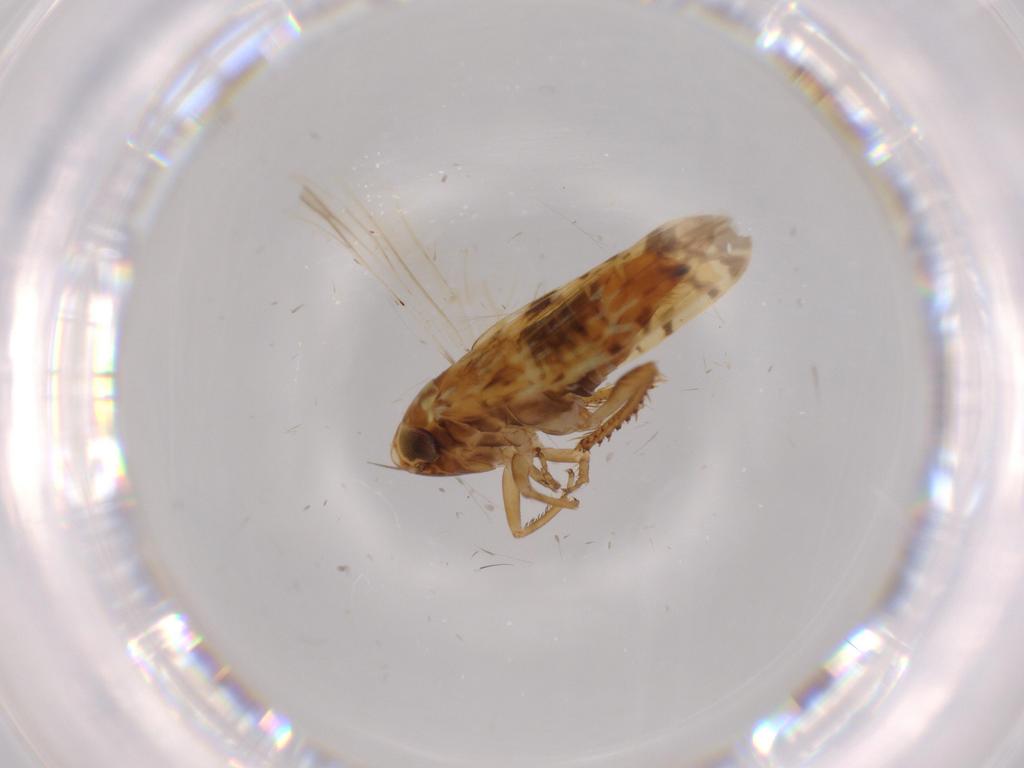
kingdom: Animalia
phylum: Arthropoda
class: Insecta
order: Hemiptera
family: Cicadellidae
